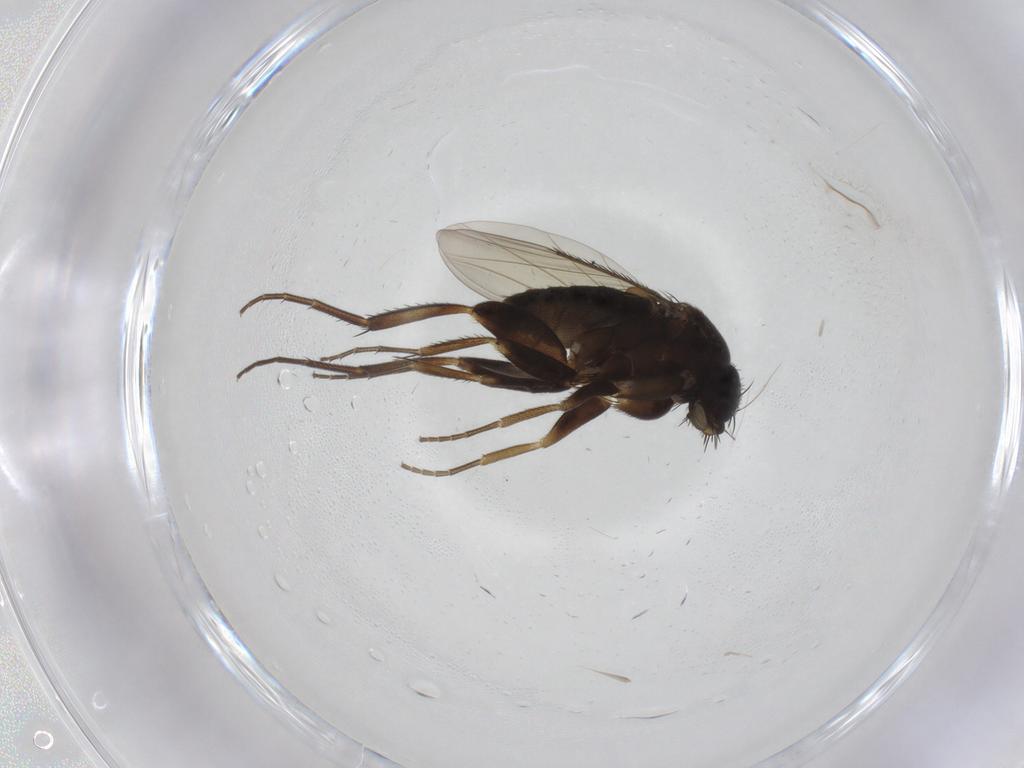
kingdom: Animalia
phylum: Arthropoda
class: Insecta
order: Diptera
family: Phoridae
